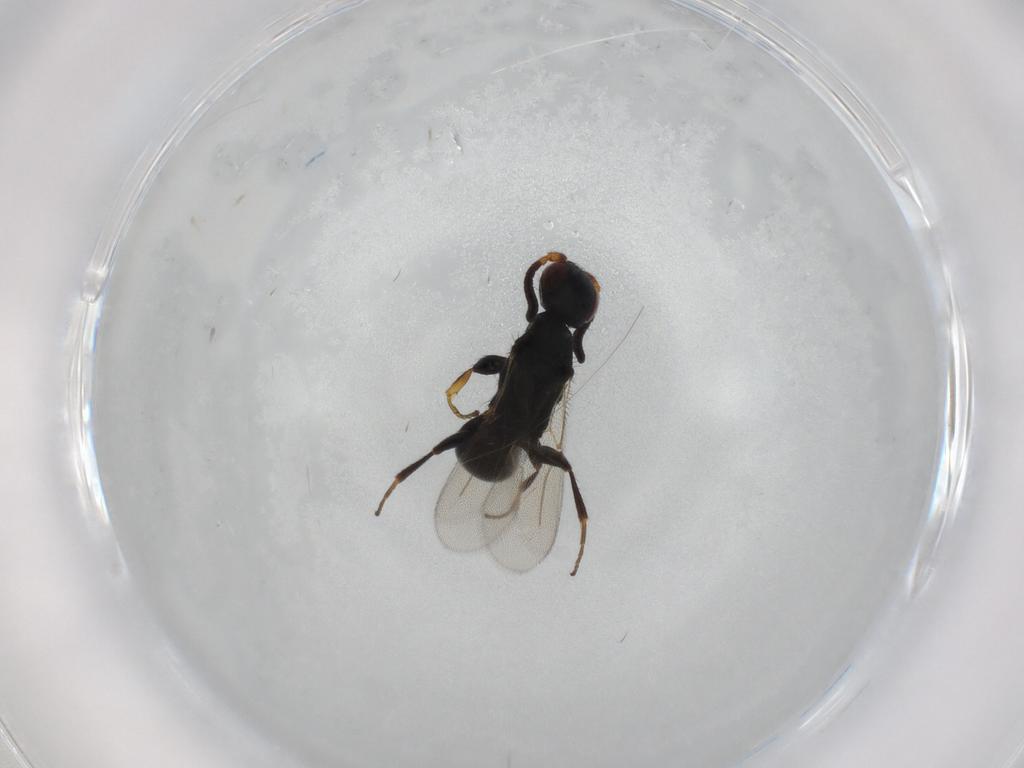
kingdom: Animalia
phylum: Arthropoda
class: Insecta
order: Hymenoptera
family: Bethylidae
